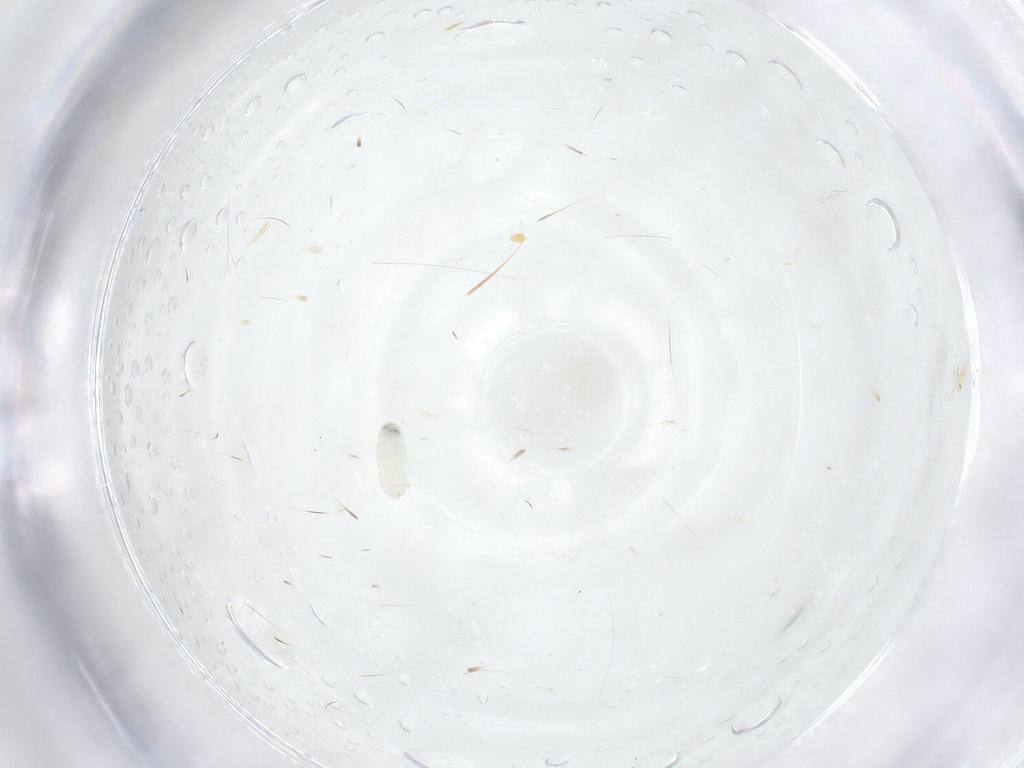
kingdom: Animalia
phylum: Arthropoda
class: Insecta
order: Diptera
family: Tachinidae
